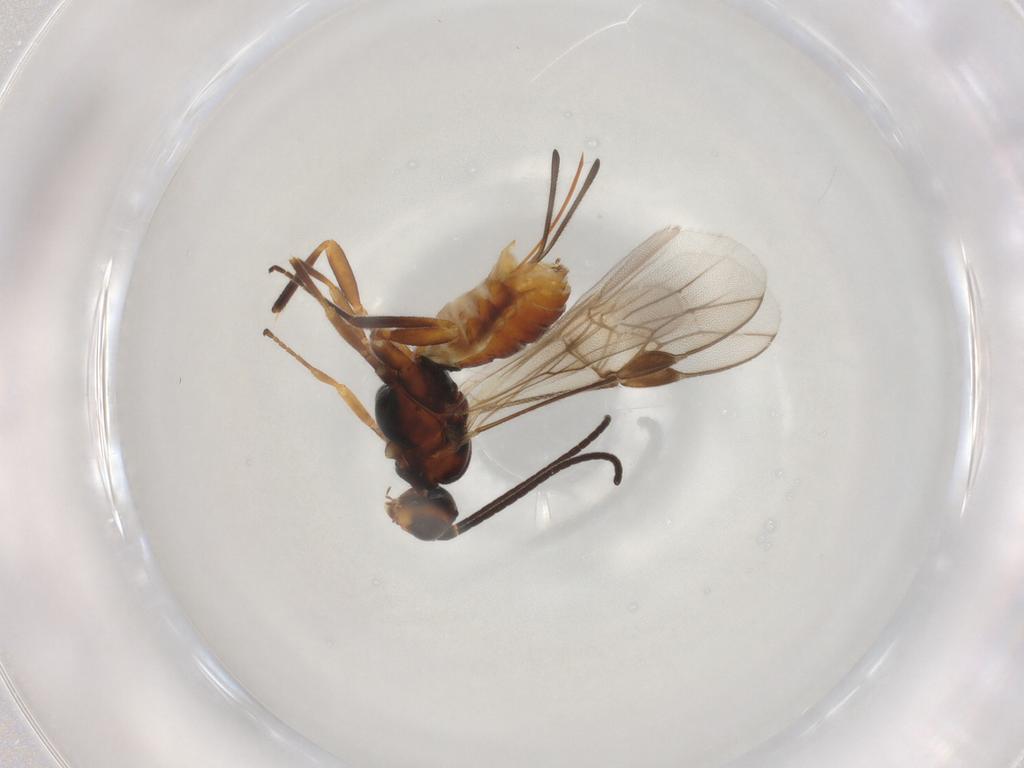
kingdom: Animalia
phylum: Arthropoda
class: Insecta
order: Hymenoptera
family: Braconidae
